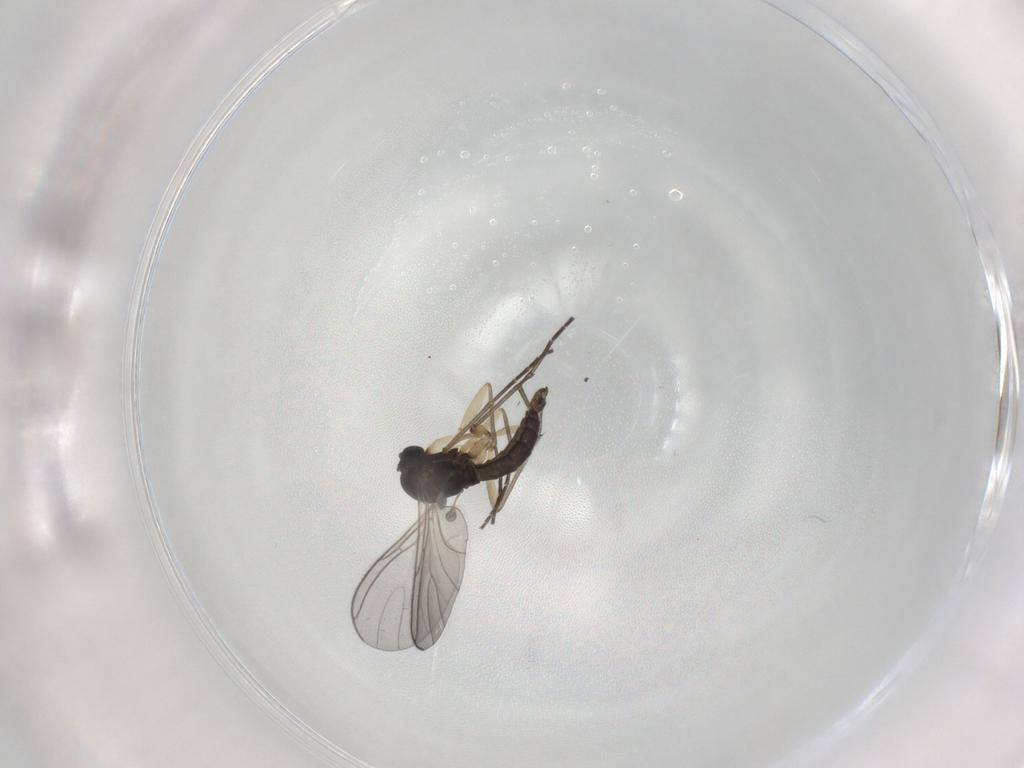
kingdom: Animalia
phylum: Arthropoda
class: Insecta
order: Diptera
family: Sciaridae
